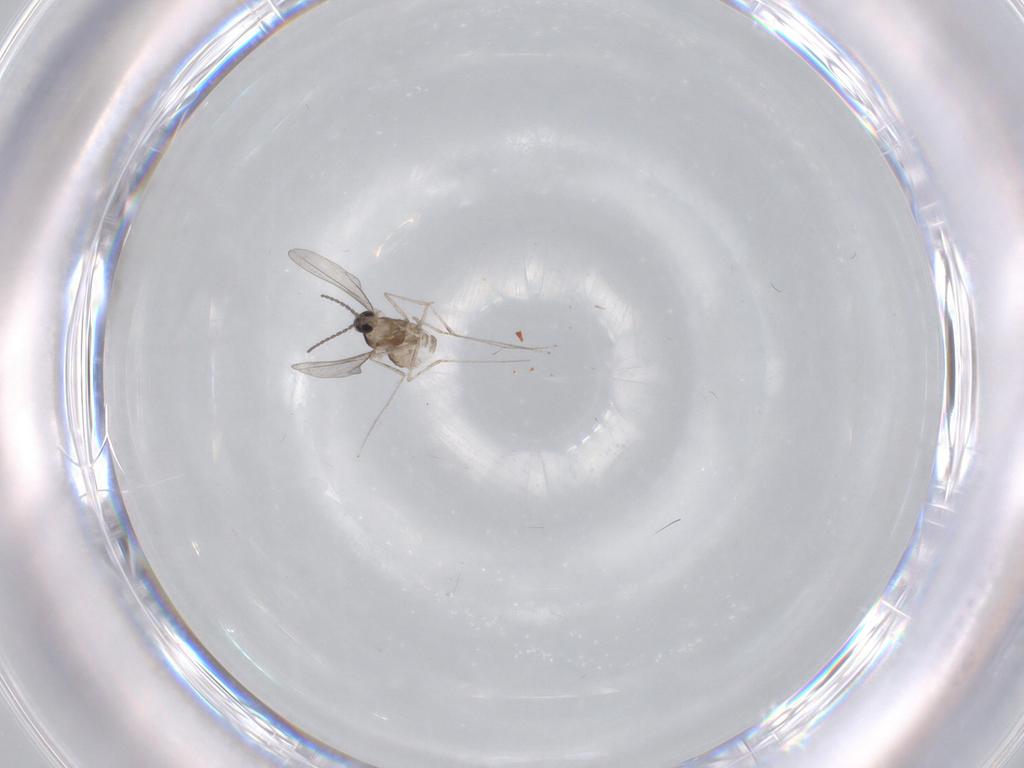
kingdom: Animalia
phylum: Arthropoda
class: Insecta
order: Diptera
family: Cecidomyiidae
